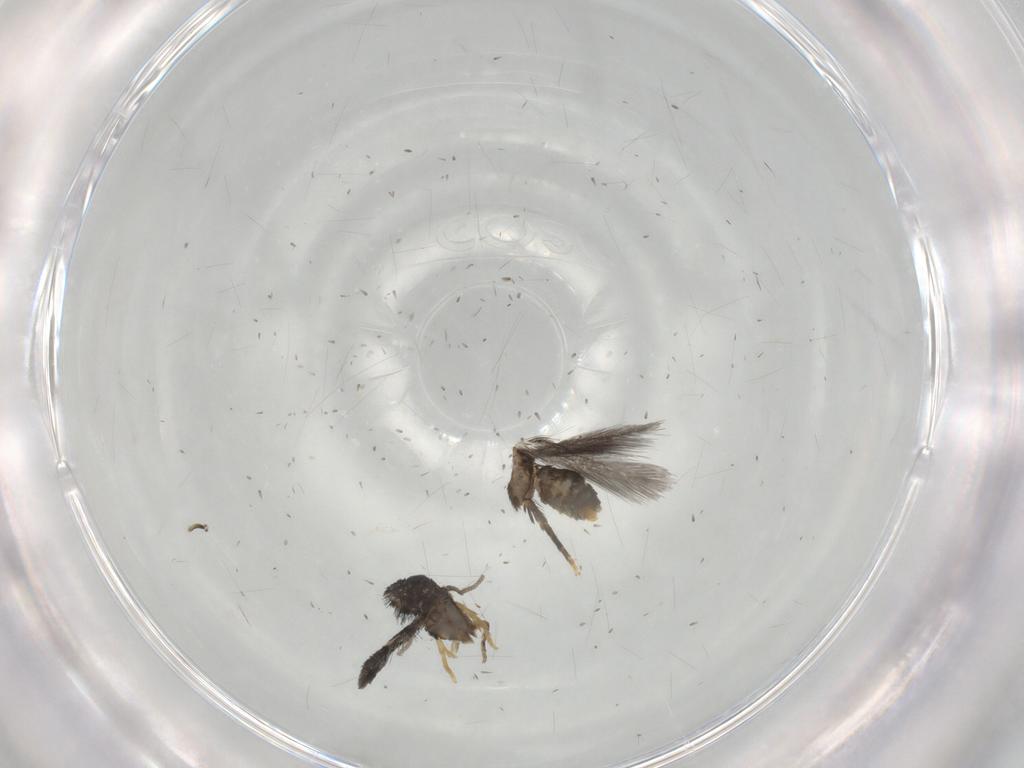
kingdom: Animalia
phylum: Arthropoda
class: Insecta
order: Lepidoptera
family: Nepticulidae
